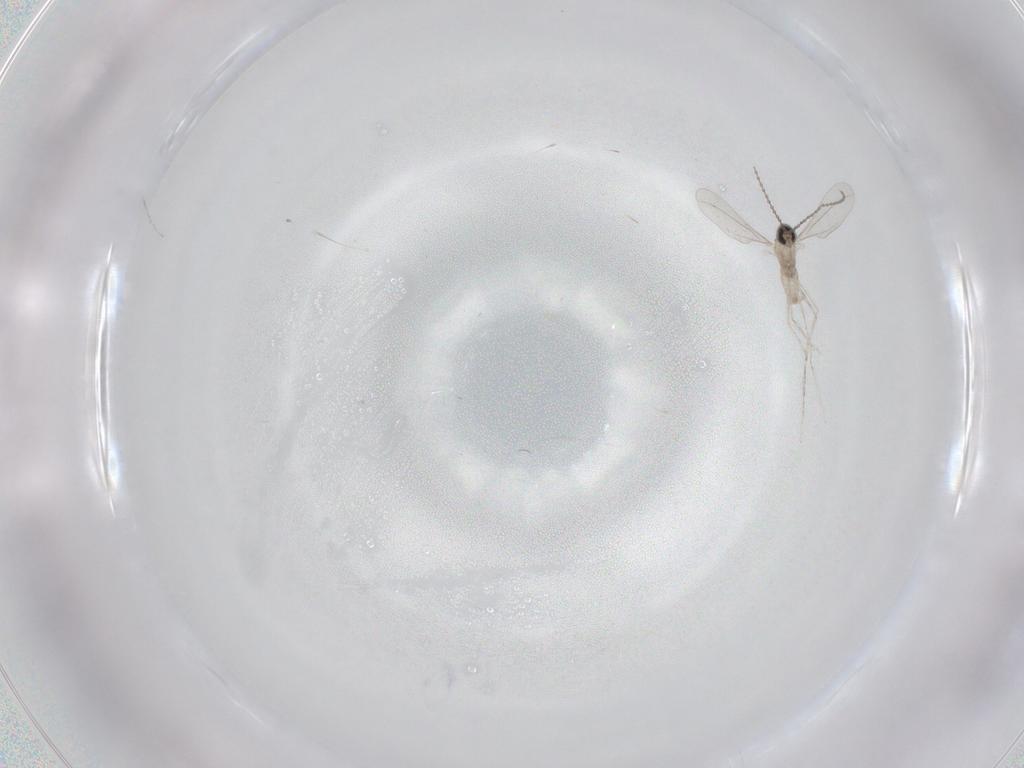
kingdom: Animalia
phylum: Arthropoda
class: Insecta
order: Diptera
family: Cecidomyiidae
